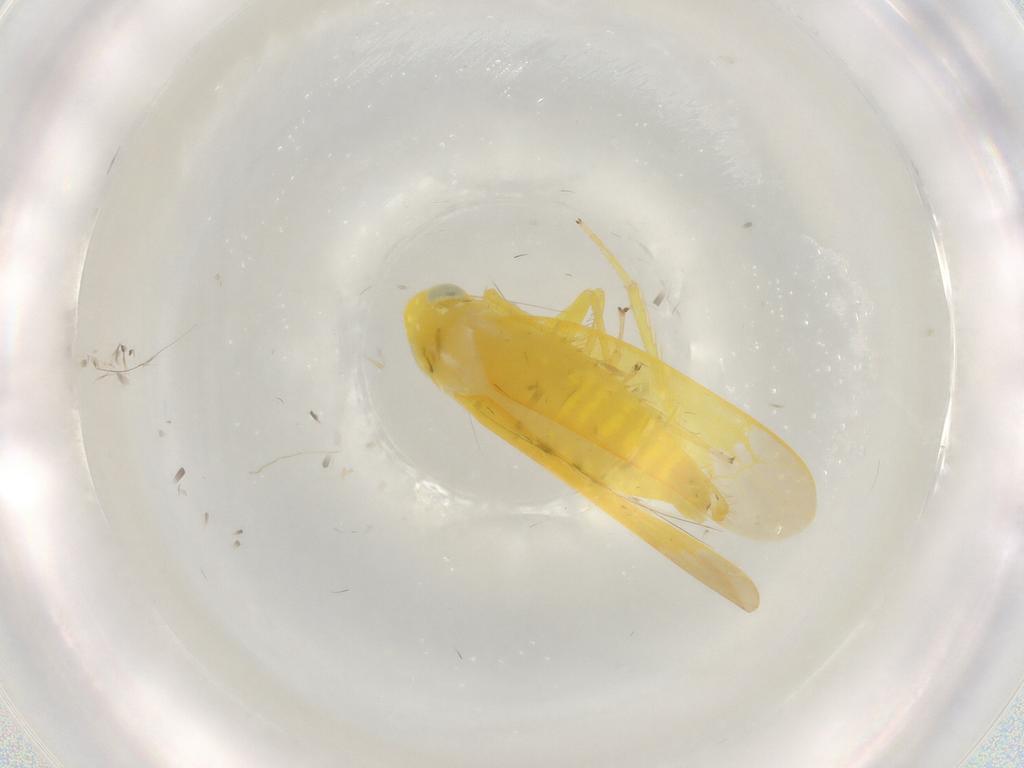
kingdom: Animalia
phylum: Arthropoda
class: Insecta
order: Hemiptera
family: Cicadellidae
